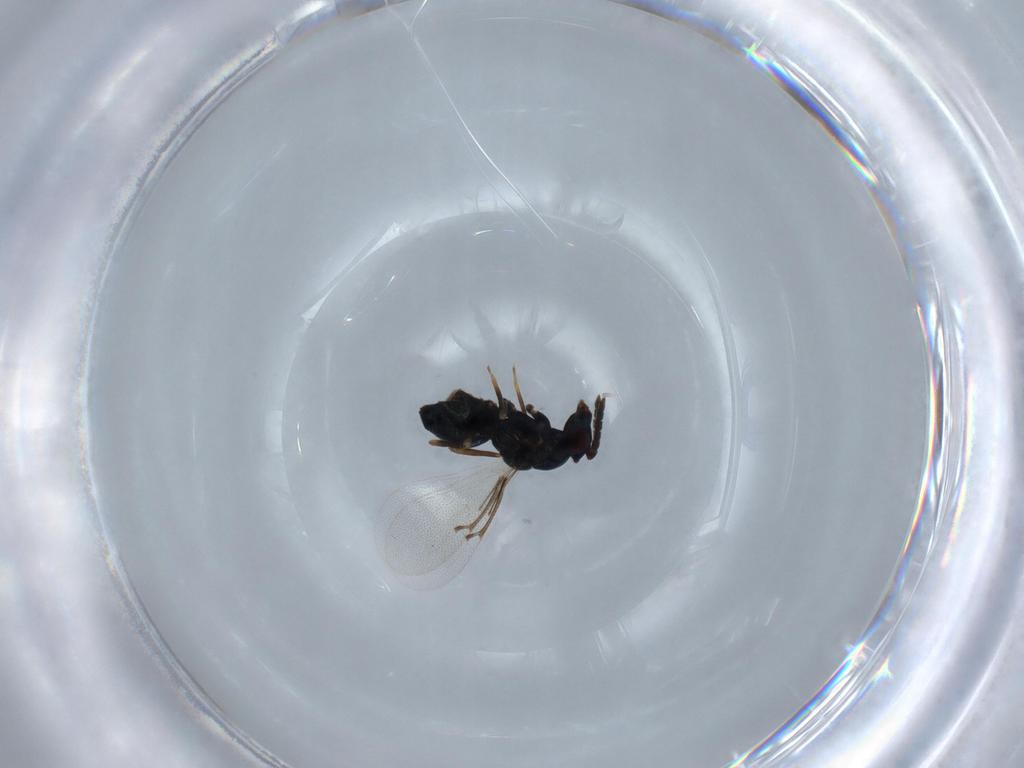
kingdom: Animalia
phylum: Arthropoda
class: Insecta
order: Hymenoptera
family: Eulophidae
